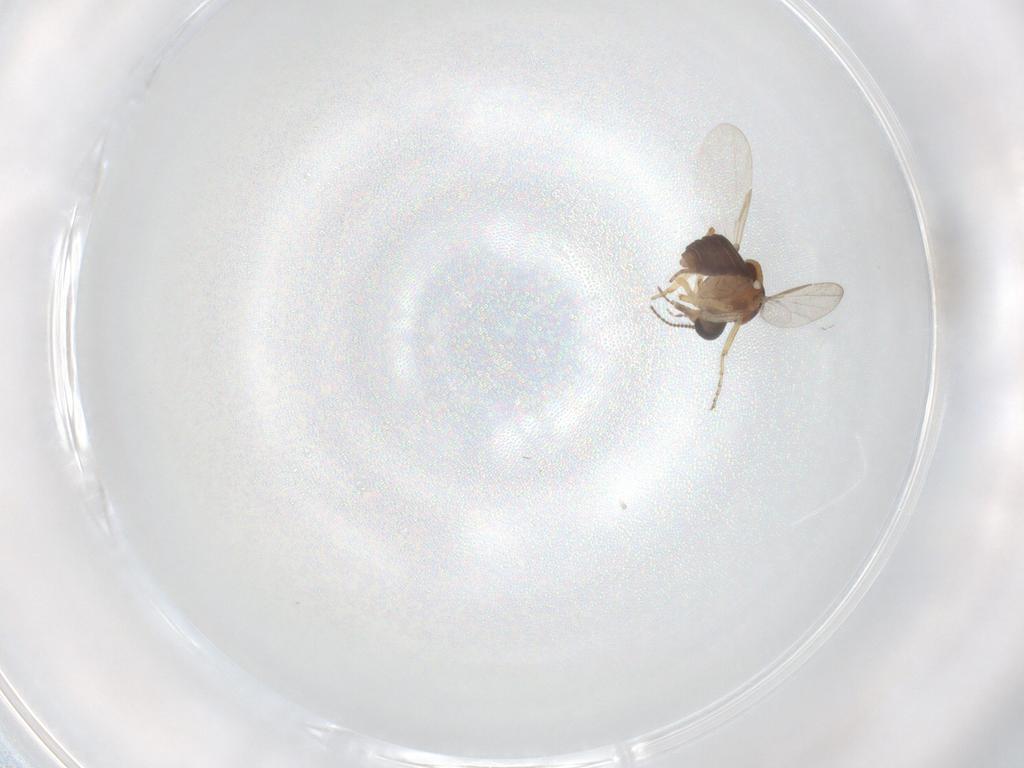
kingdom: Animalia
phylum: Arthropoda
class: Insecta
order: Diptera
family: Ceratopogonidae
